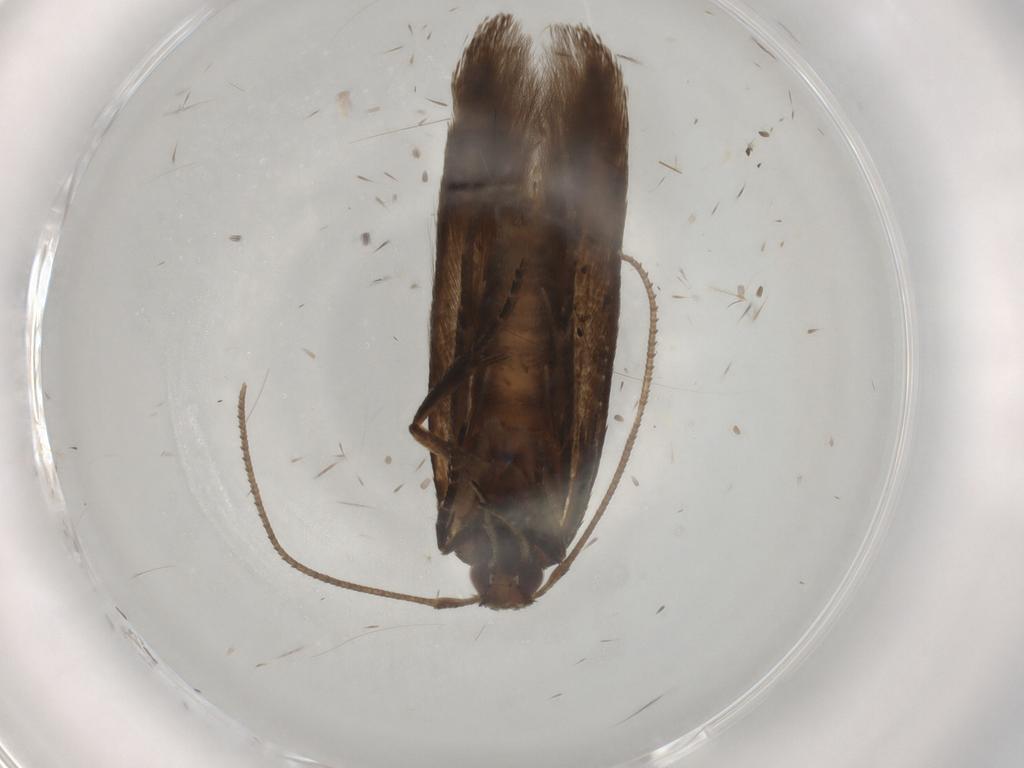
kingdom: Animalia
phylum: Arthropoda
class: Insecta
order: Lepidoptera
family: Cosmopterigidae
